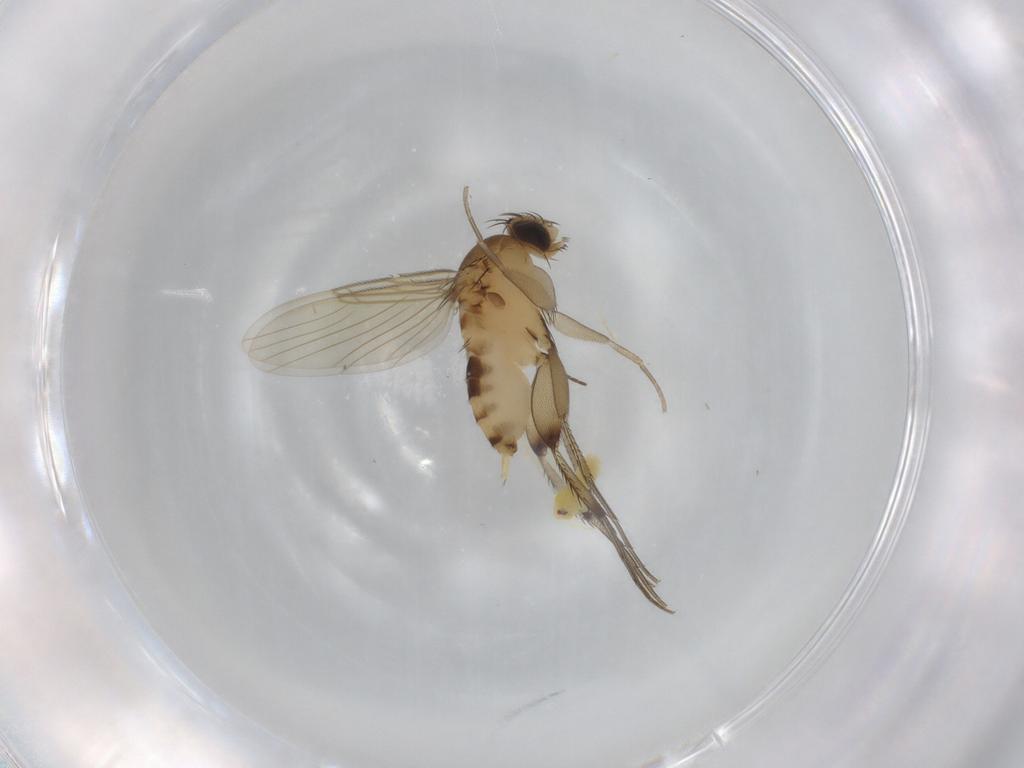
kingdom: Animalia
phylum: Arthropoda
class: Insecta
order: Diptera
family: Phoridae
